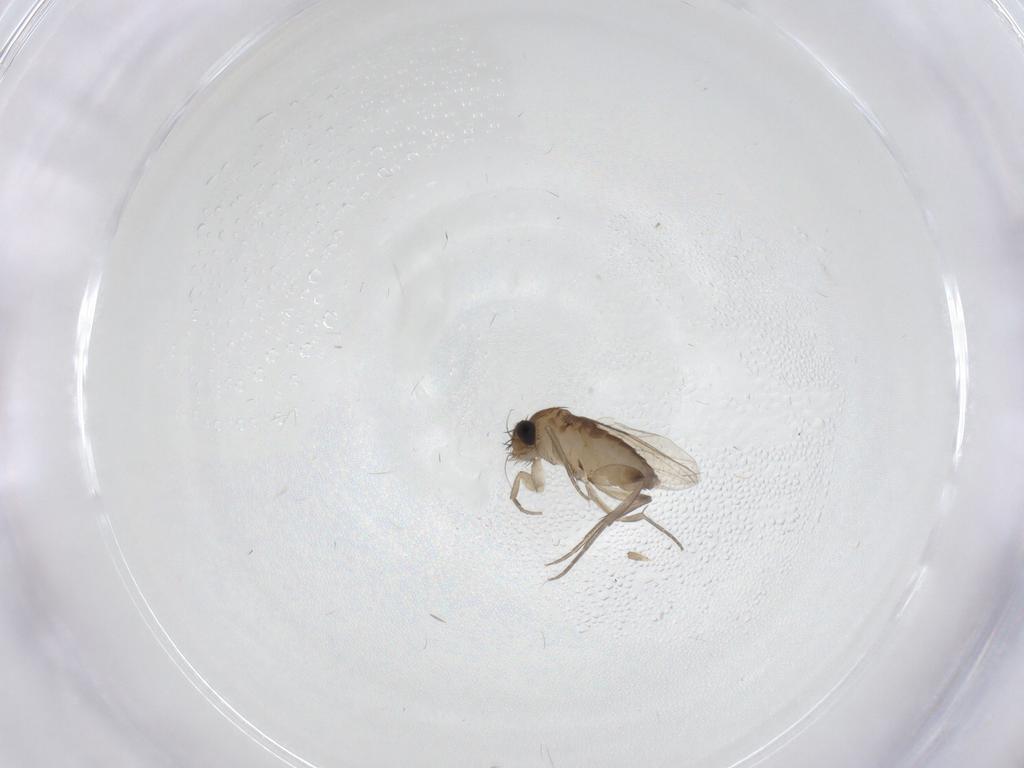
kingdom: Animalia
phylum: Arthropoda
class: Insecta
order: Diptera
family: Phoridae
